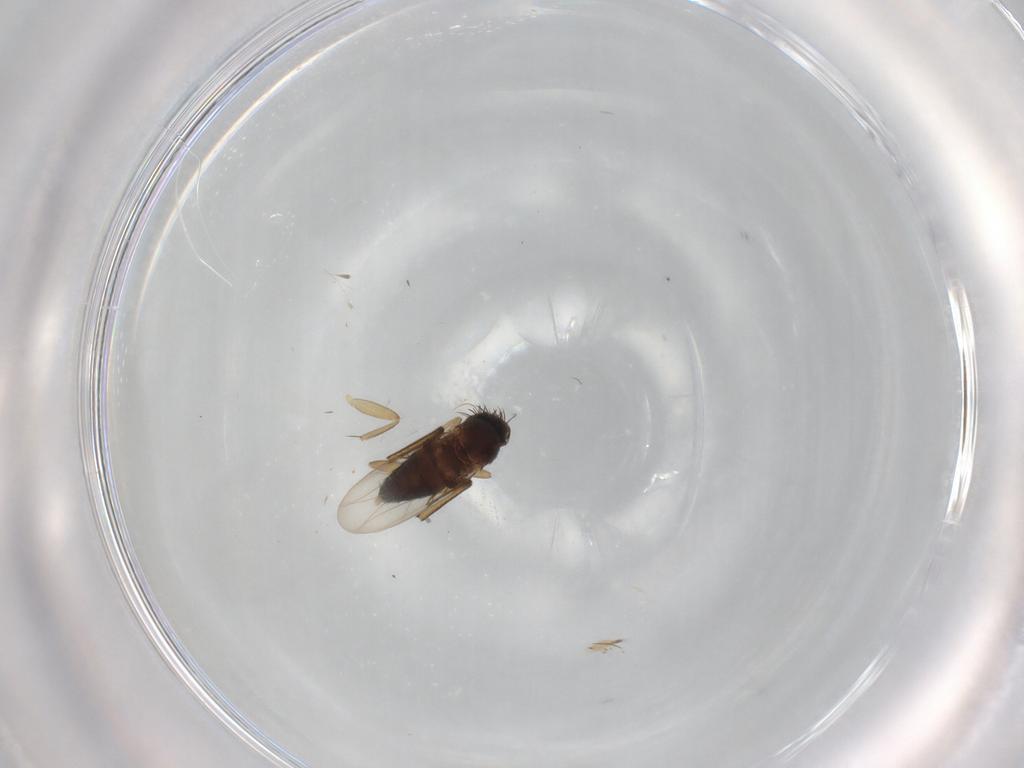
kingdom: Animalia
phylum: Arthropoda
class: Insecta
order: Diptera
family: Phoridae
